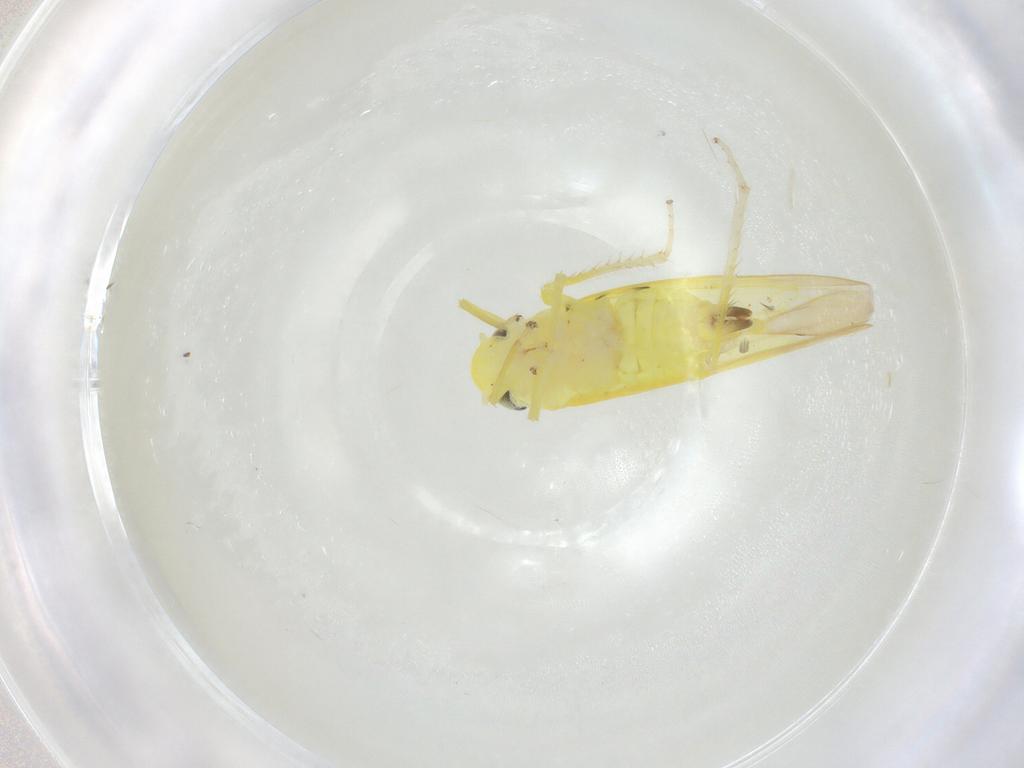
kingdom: Animalia
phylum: Arthropoda
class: Insecta
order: Hemiptera
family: Cicadellidae
